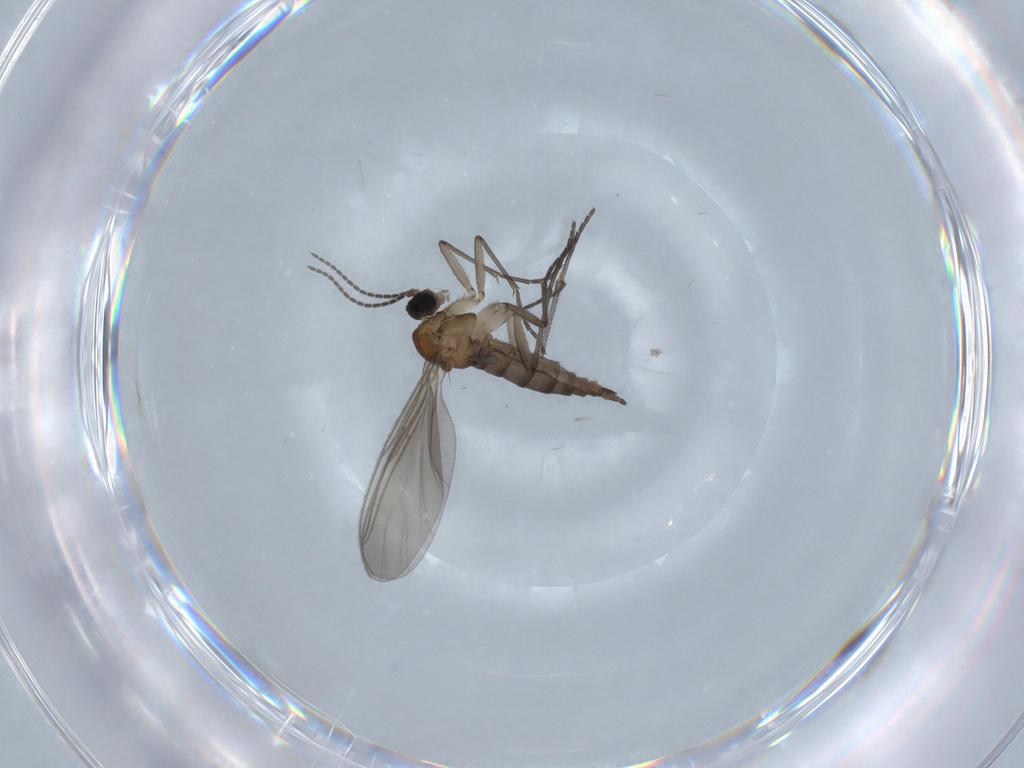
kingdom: Animalia
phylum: Arthropoda
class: Insecta
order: Diptera
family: Sciaridae
